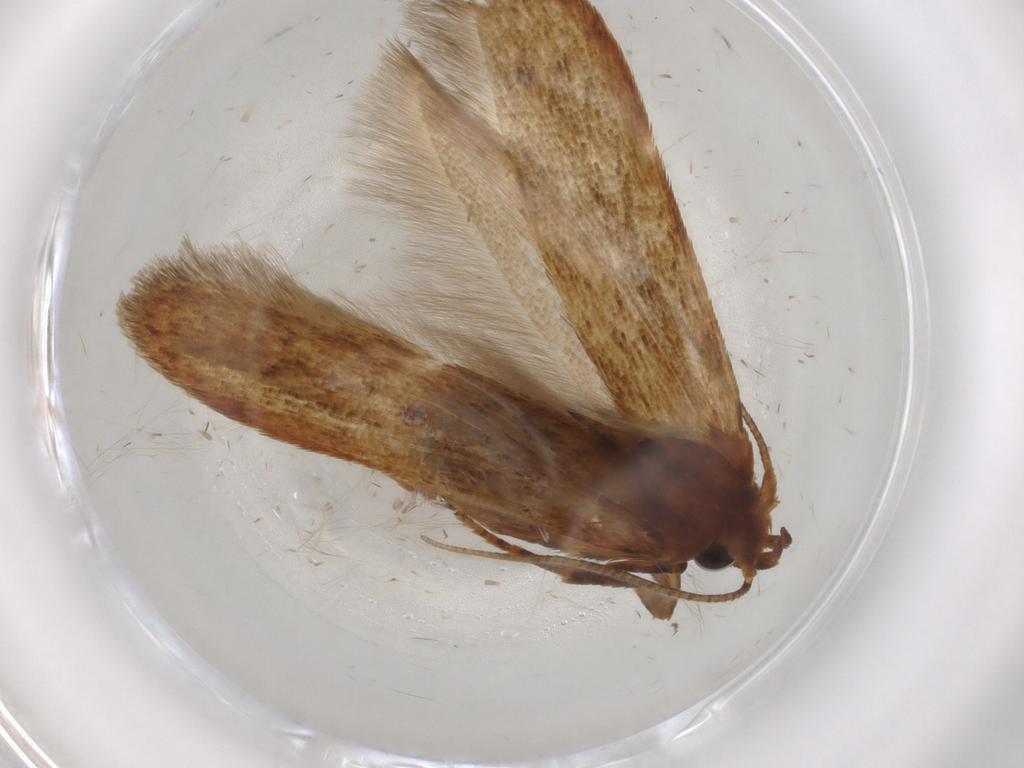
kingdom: Animalia
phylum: Arthropoda
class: Insecta
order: Lepidoptera
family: Blastobasidae
